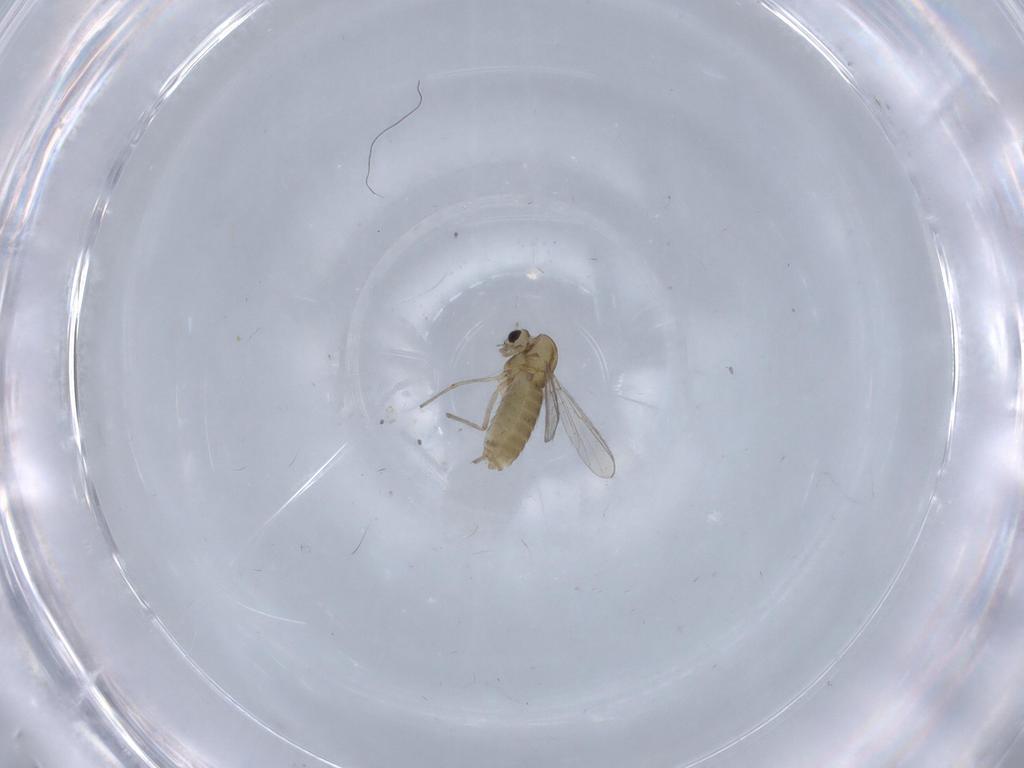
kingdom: Animalia
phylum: Arthropoda
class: Insecta
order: Diptera
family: Chironomidae
